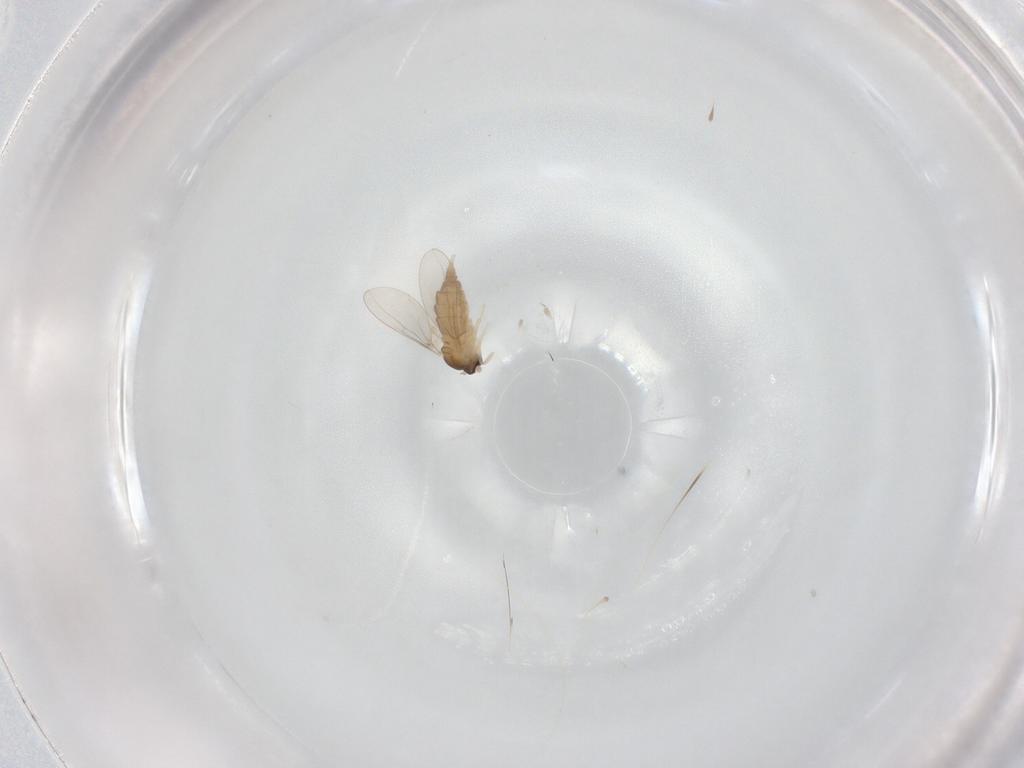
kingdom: Animalia
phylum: Arthropoda
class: Insecta
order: Diptera
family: Cecidomyiidae
